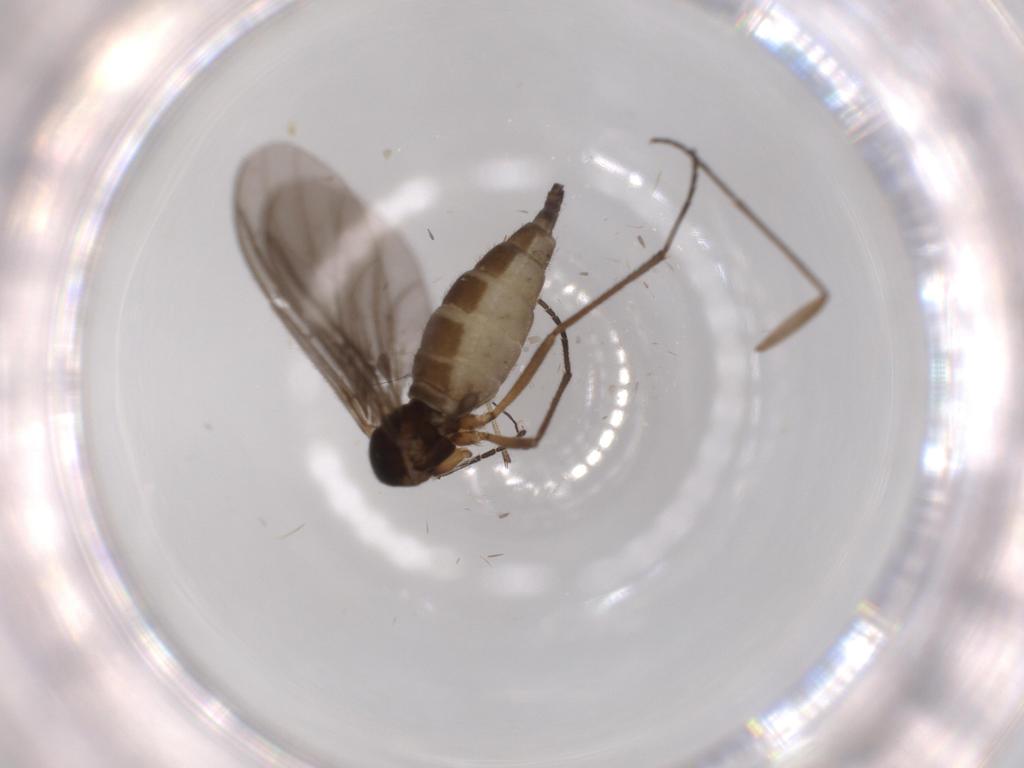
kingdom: Animalia
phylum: Arthropoda
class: Insecta
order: Diptera
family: Sciaridae
